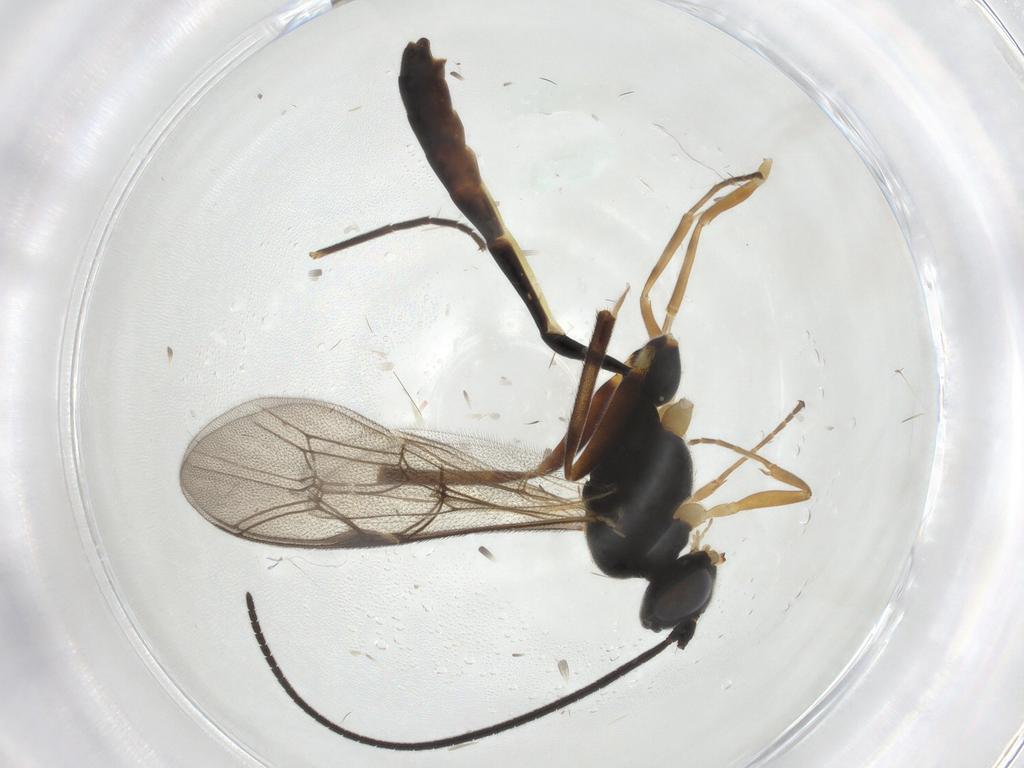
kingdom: Animalia
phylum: Arthropoda
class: Insecta
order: Hymenoptera
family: Ichneumonidae
